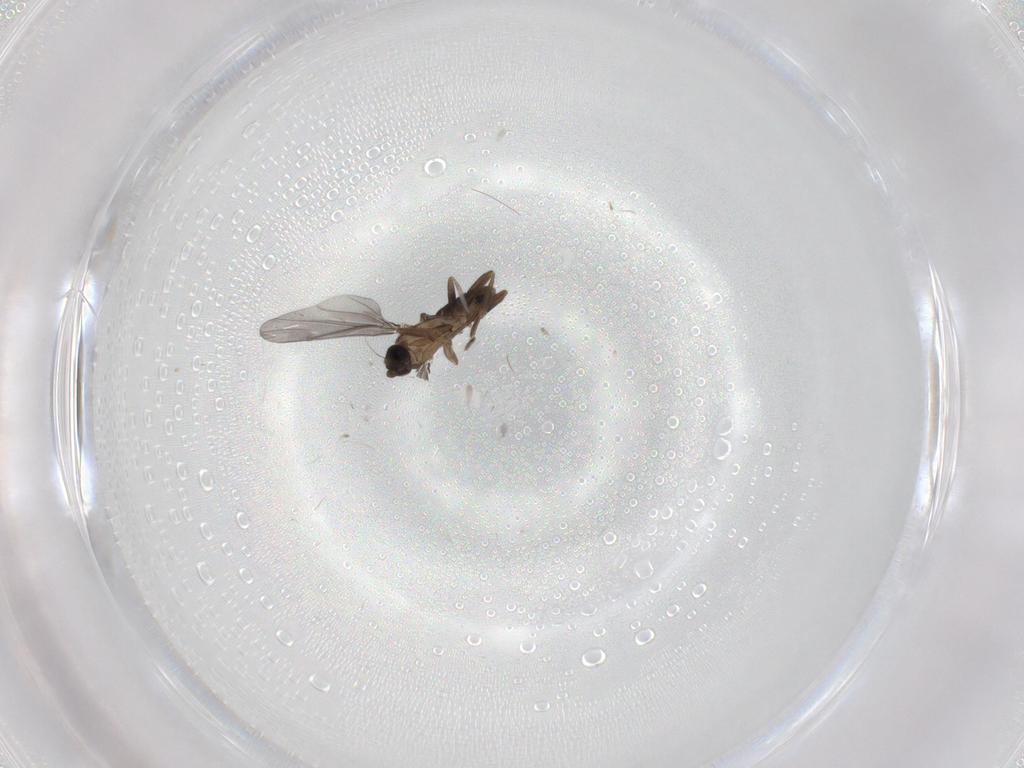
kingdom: Animalia
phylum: Arthropoda
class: Insecta
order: Diptera
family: Phoridae
